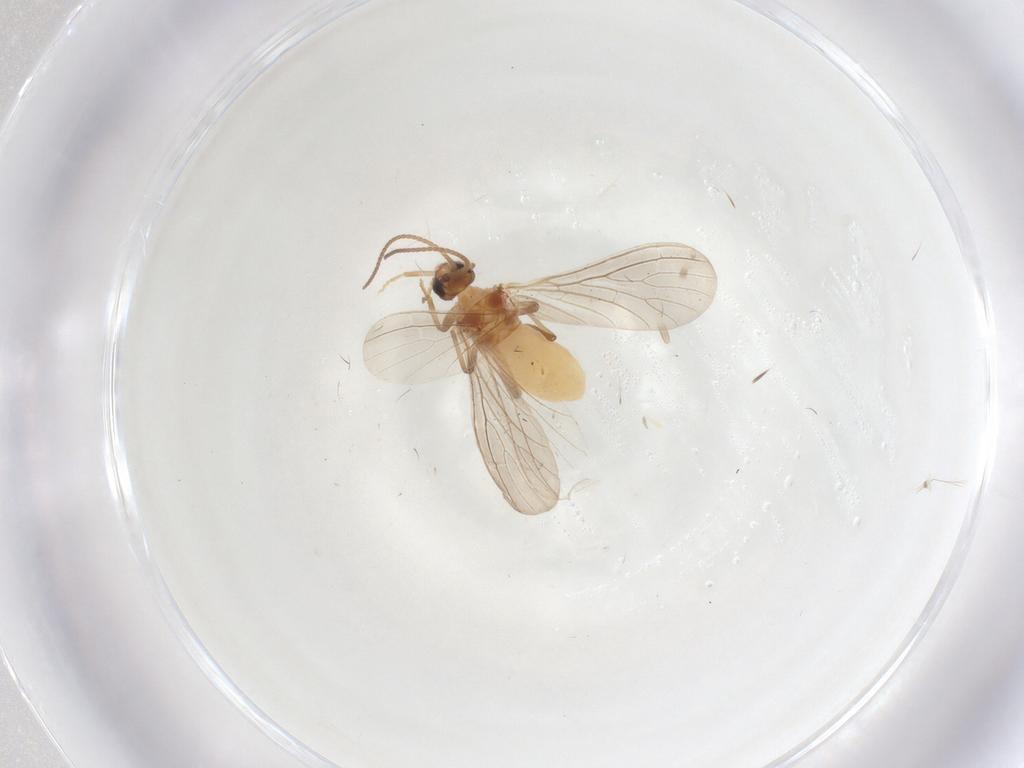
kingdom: Animalia
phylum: Arthropoda
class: Insecta
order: Neuroptera
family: Coniopterygidae
